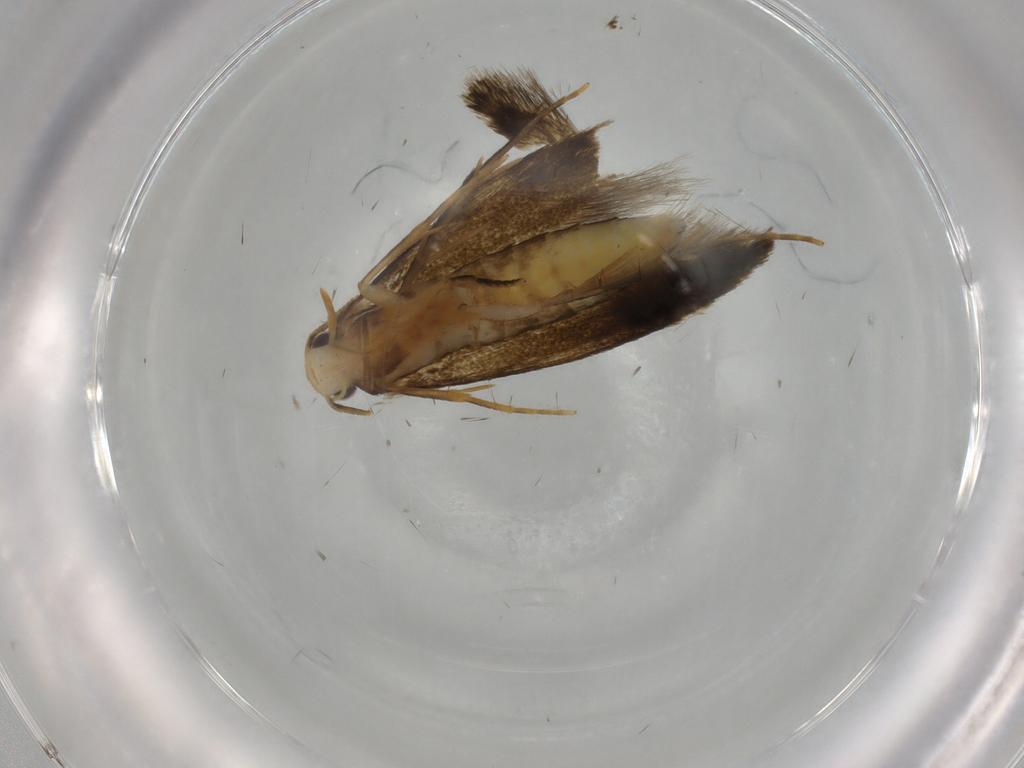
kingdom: Animalia
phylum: Arthropoda
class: Insecta
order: Lepidoptera
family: Tineidae
